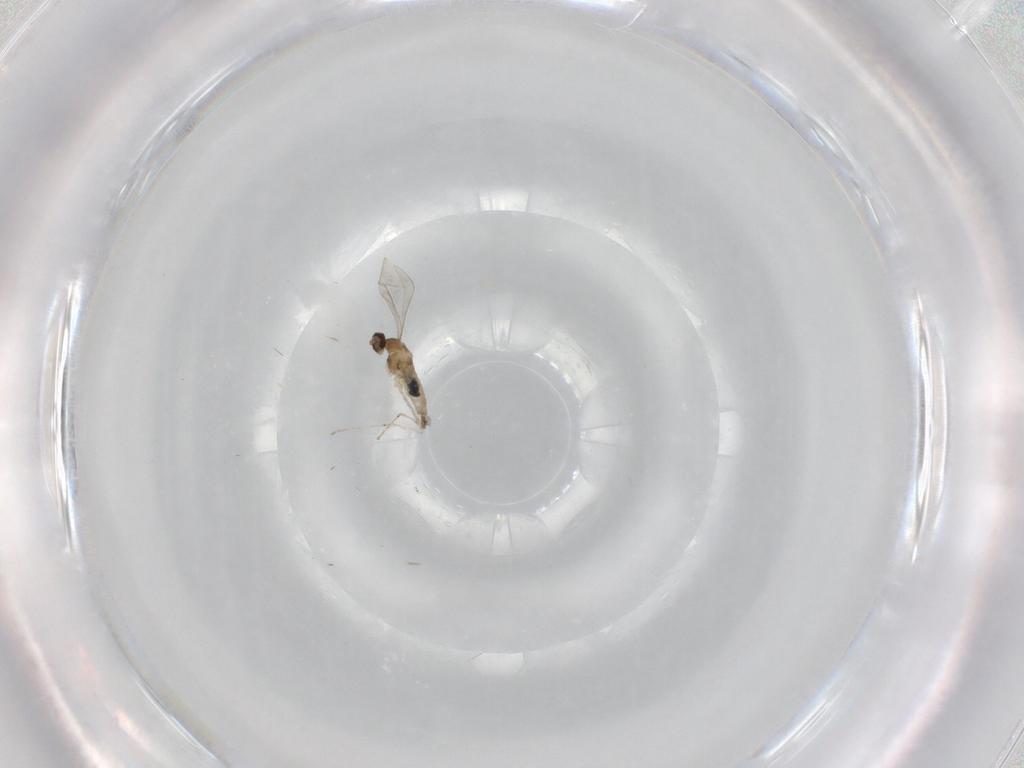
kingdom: Animalia
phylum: Arthropoda
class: Insecta
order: Diptera
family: Cecidomyiidae
